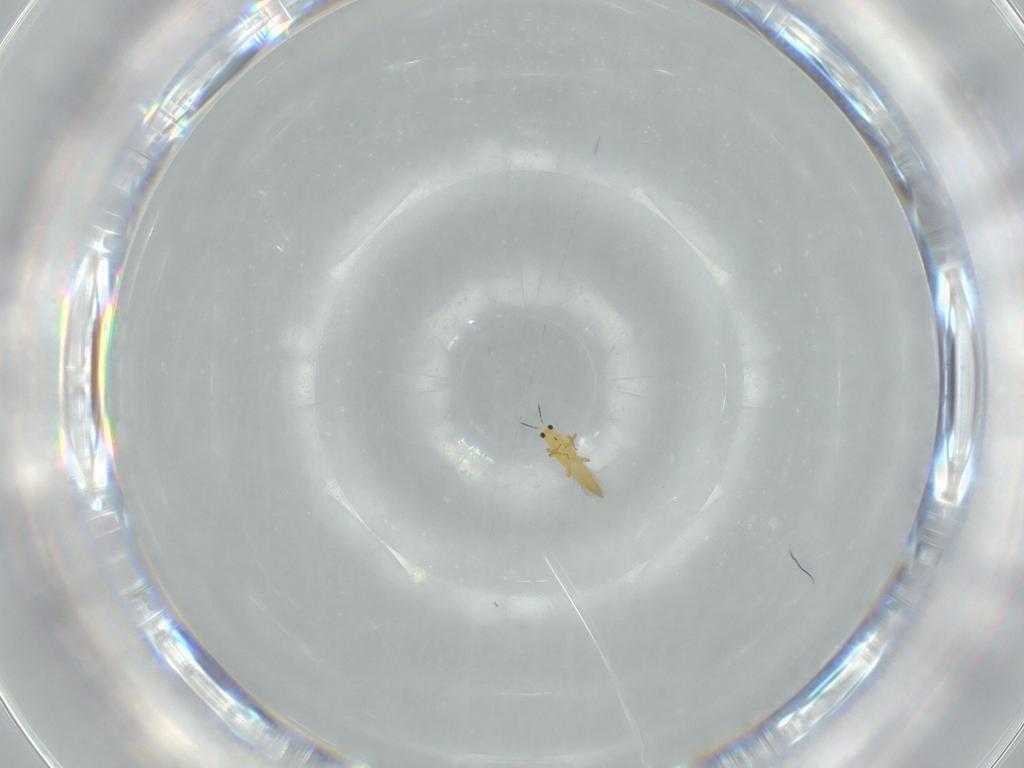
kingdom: Animalia
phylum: Arthropoda
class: Insecta
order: Thysanoptera
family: Thripidae
